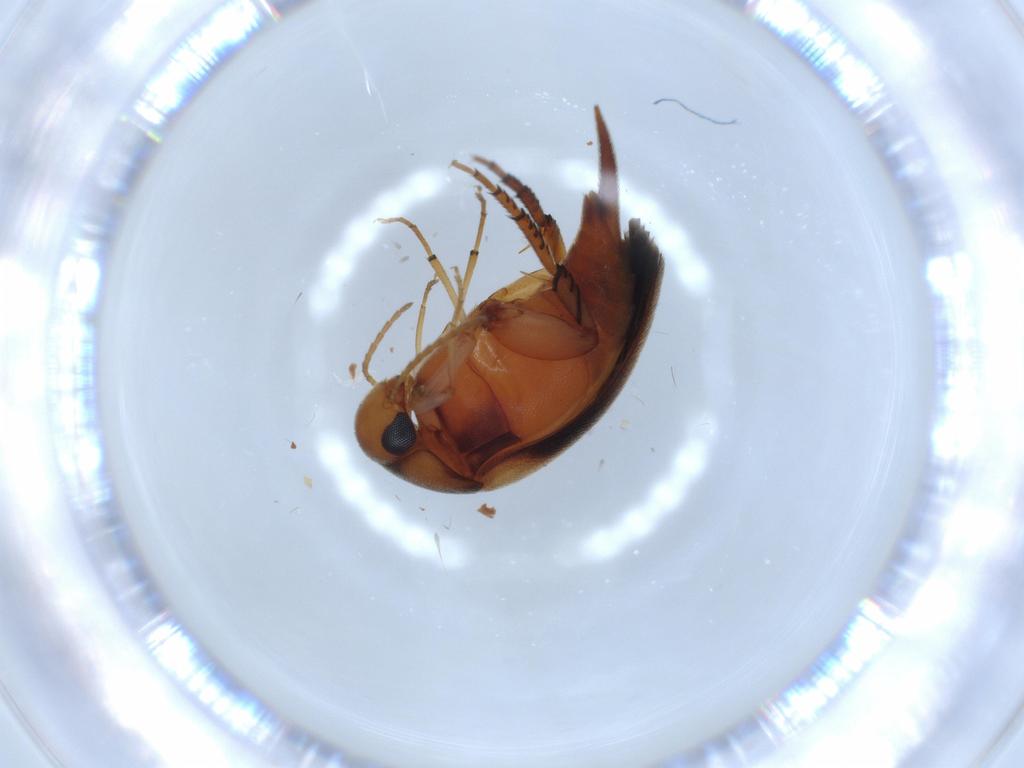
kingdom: Animalia
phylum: Arthropoda
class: Insecta
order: Coleoptera
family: Mordellidae
